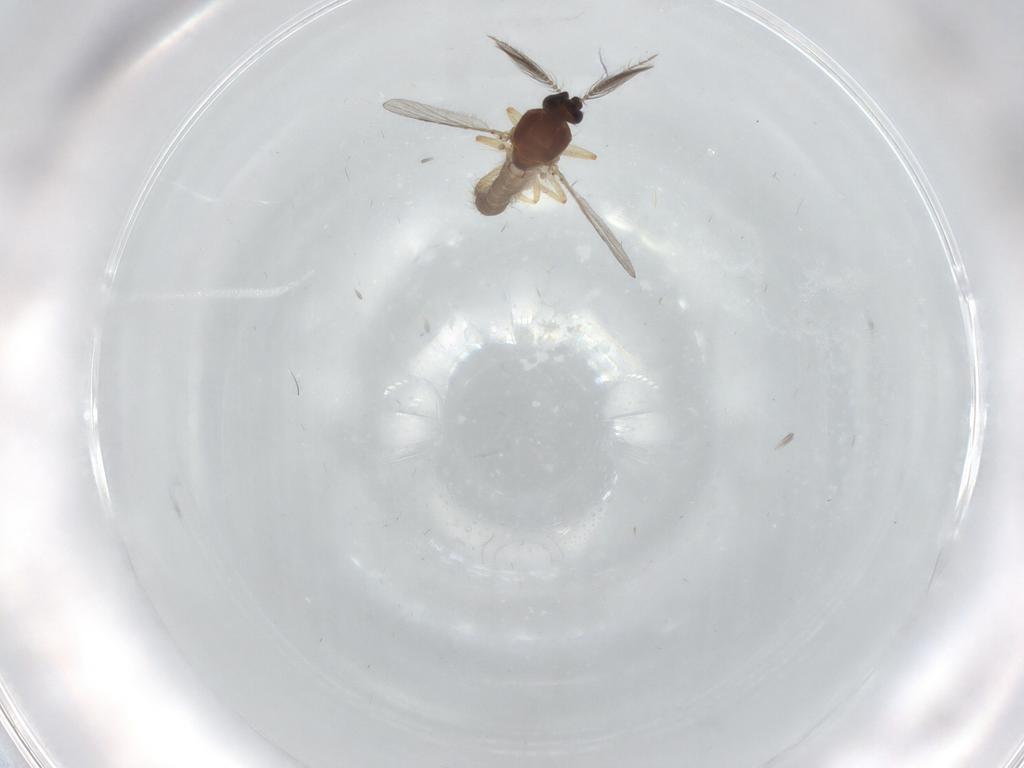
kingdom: Animalia
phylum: Arthropoda
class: Insecta
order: Diptera
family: Ceratopogonidae
